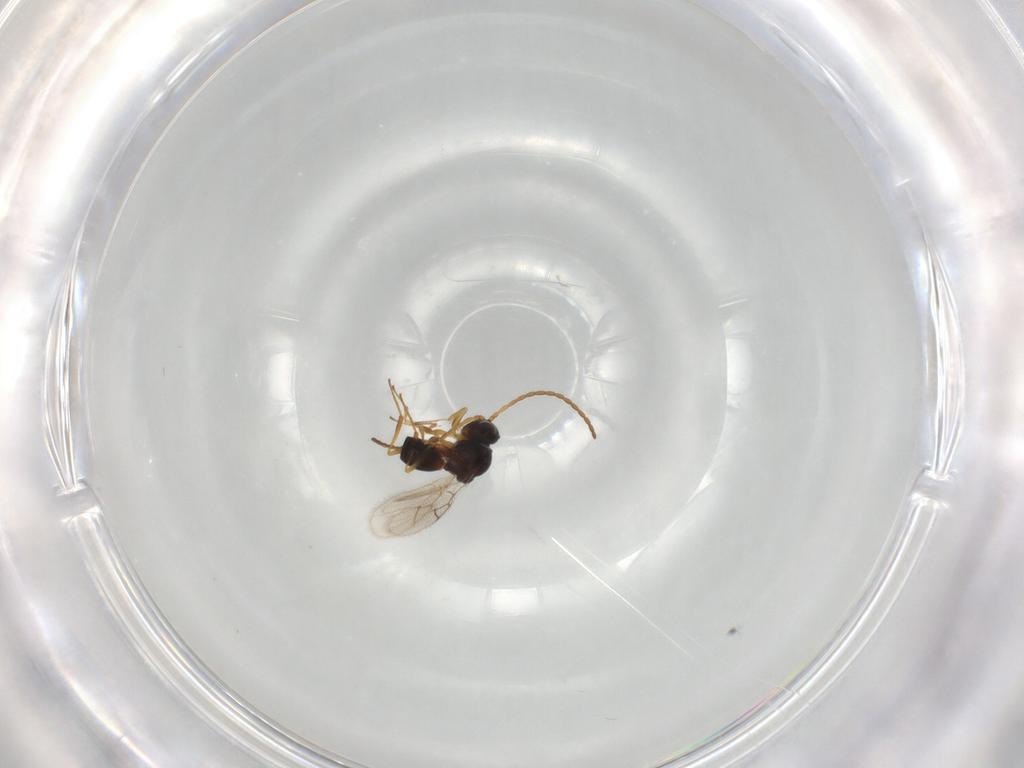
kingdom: Animalia
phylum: Arthropoda
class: Insecta
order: Hymenoptera
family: Figitidae
